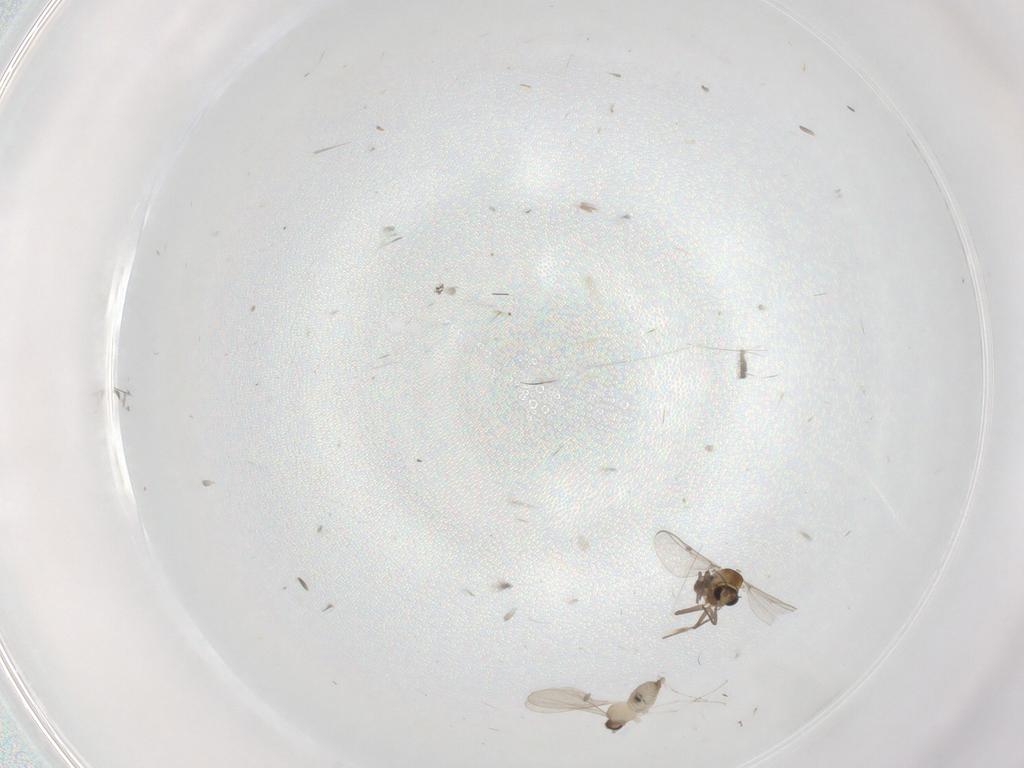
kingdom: Animalia
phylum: Arthropoda
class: Insecta
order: Diptera
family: Chironomidae
